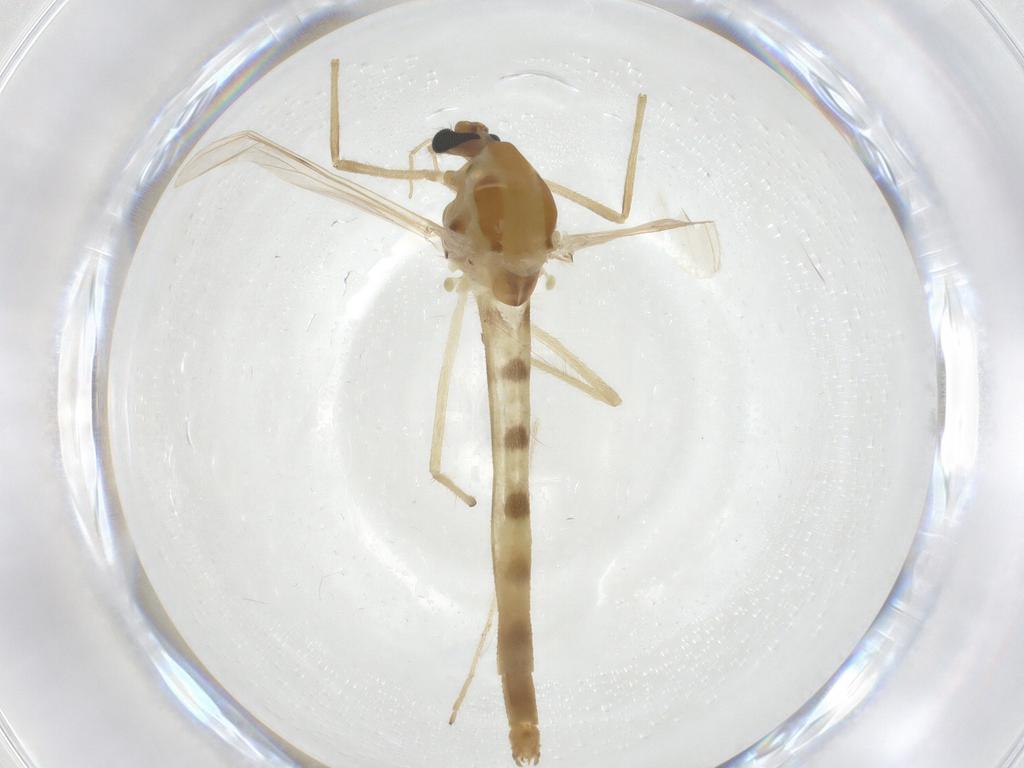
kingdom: Animalia
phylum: Arthropoda
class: Insecta
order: Diptera
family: Chironomidae
